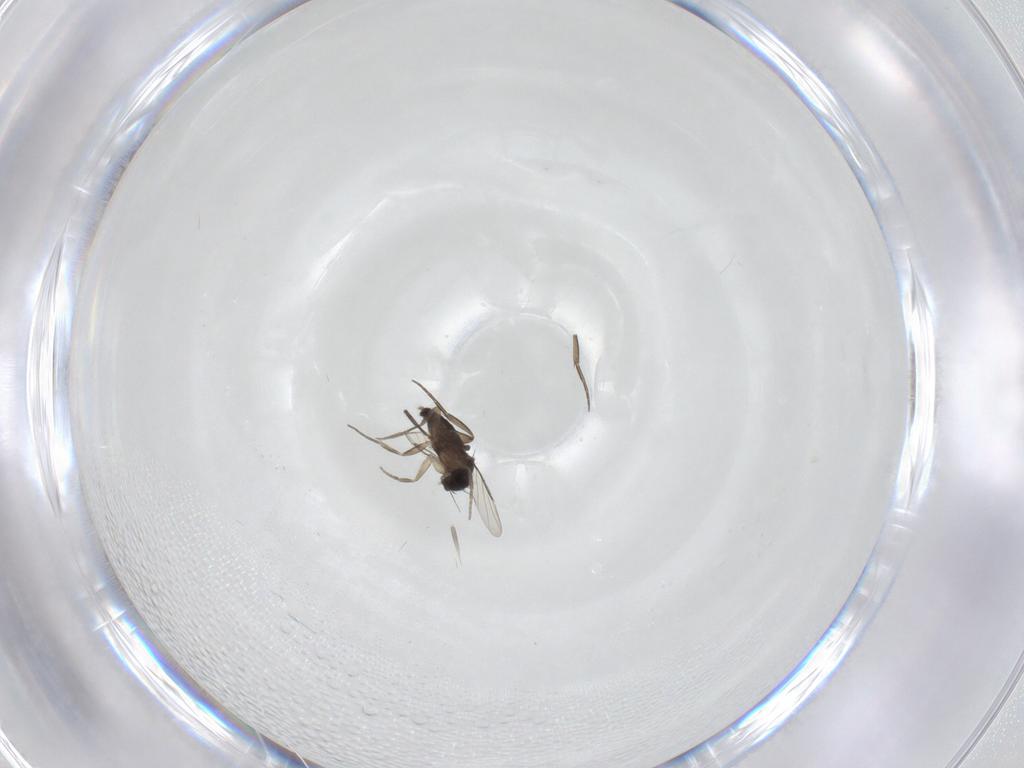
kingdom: Animalia
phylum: Arthropoda
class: Insecta
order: Diptera
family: Phoridae
